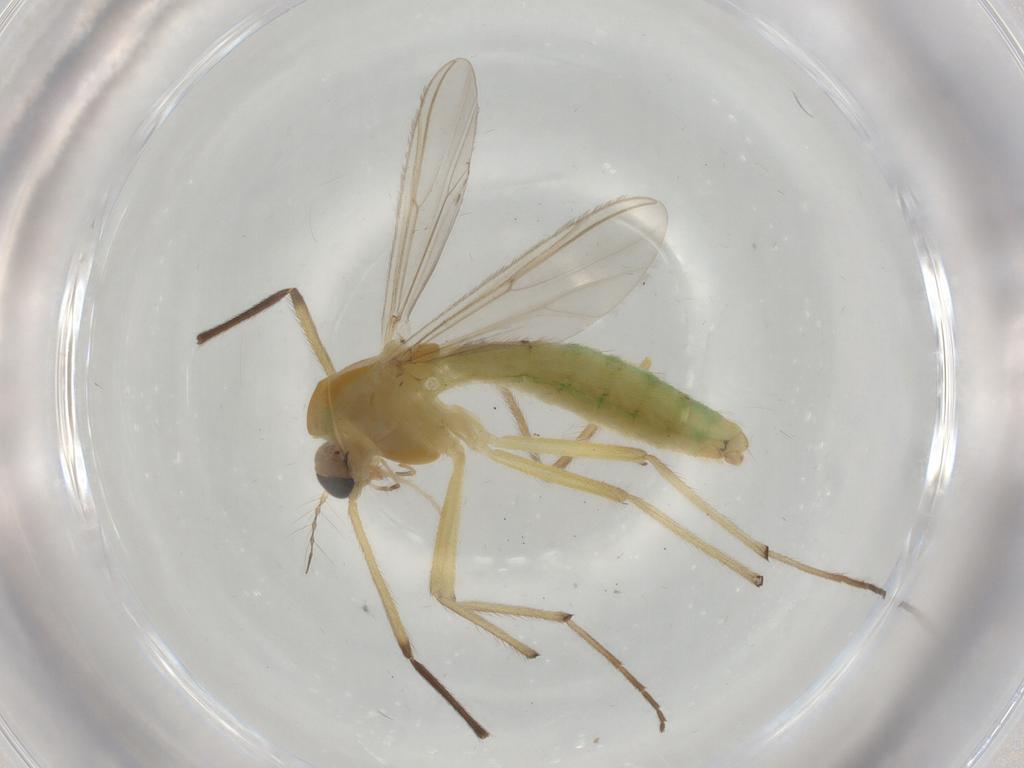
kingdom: Animalia
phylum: Arthropoda
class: Insecta
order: Diptera
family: Chironomidae
